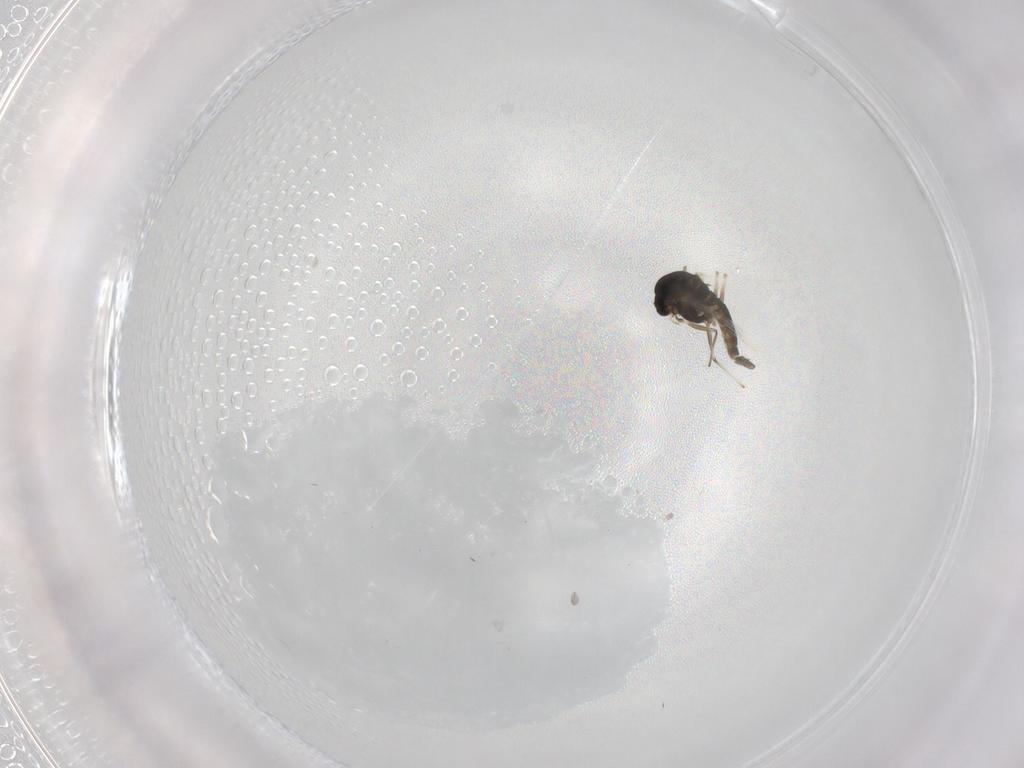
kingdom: Animalia
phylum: Arthropoda
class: Insecta
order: Diptera
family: Chironomidae
